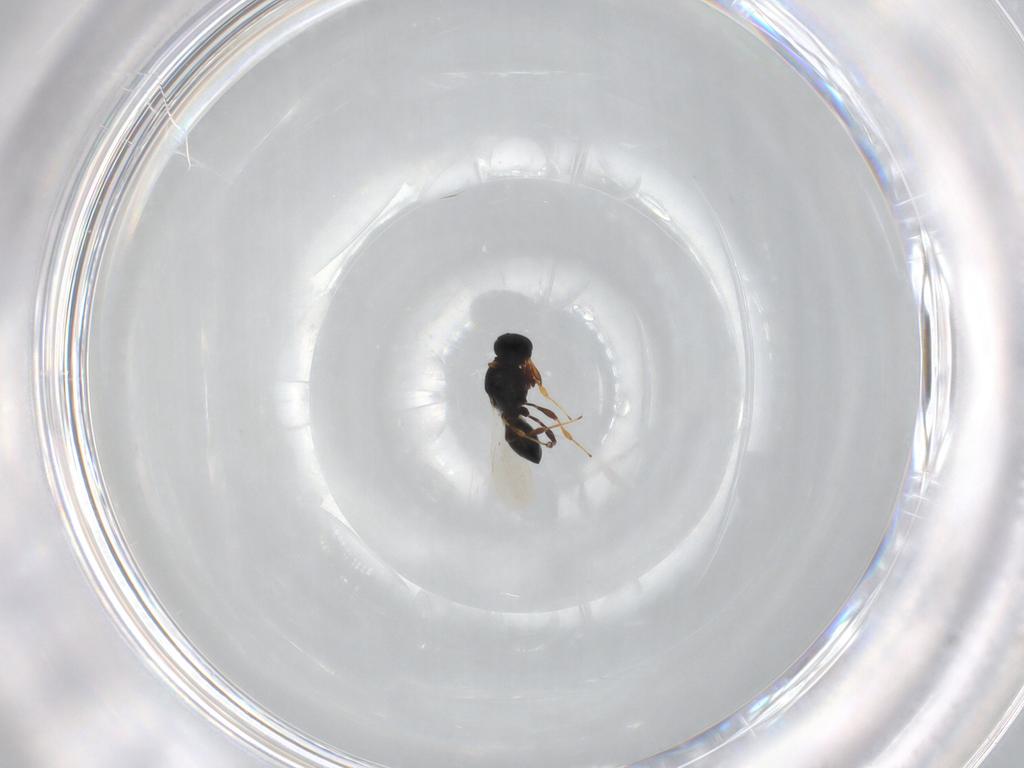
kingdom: Animalia
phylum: Arthropoda
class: Insecta
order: Hymenoptera
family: Platygastridae
